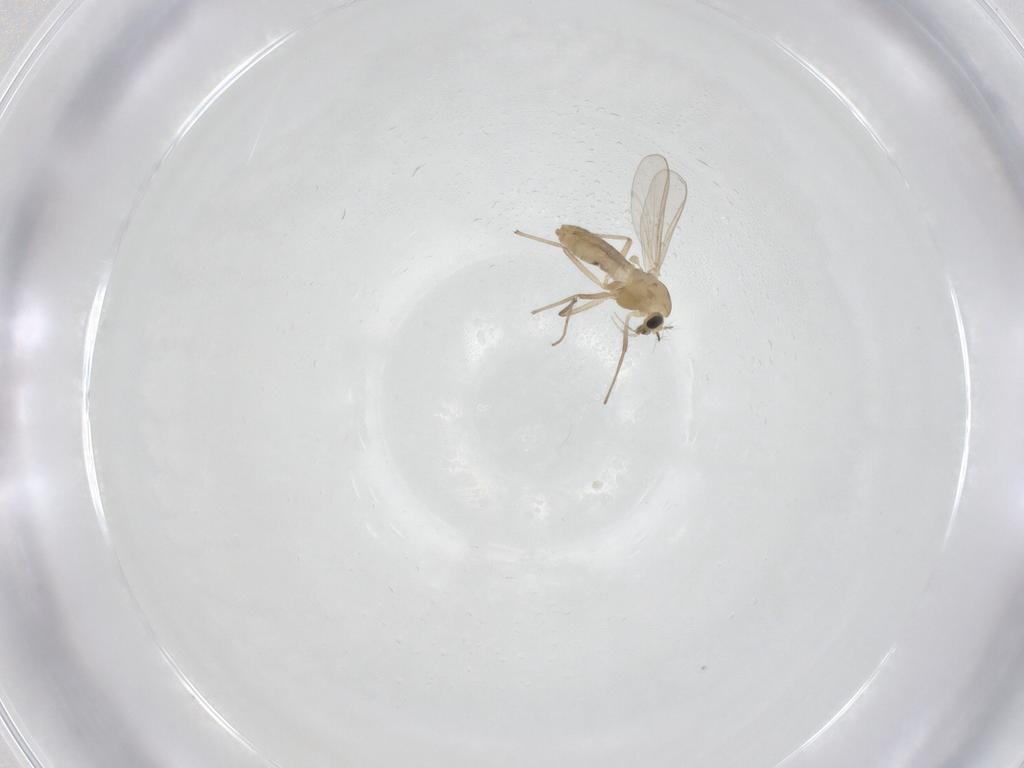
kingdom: Animalia
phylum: Arthropoda
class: Insecta
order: Diptera
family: Chironomidae
